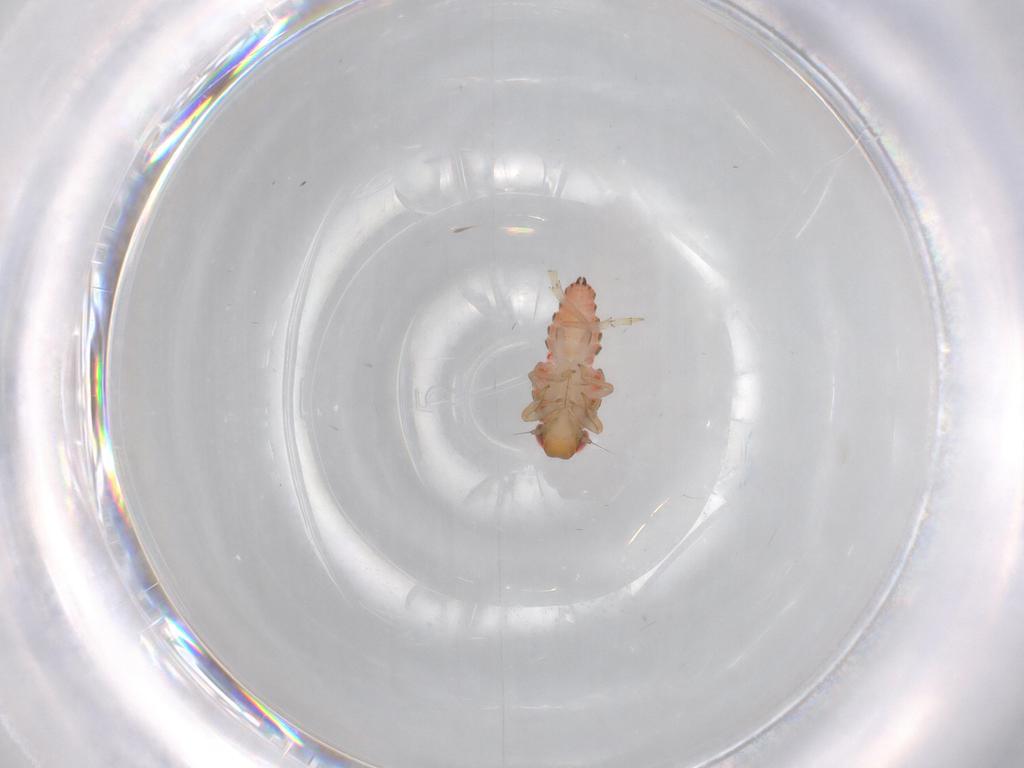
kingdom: Animalia
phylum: Arthropoda
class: Insecta
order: Hemiptera
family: Issidae
